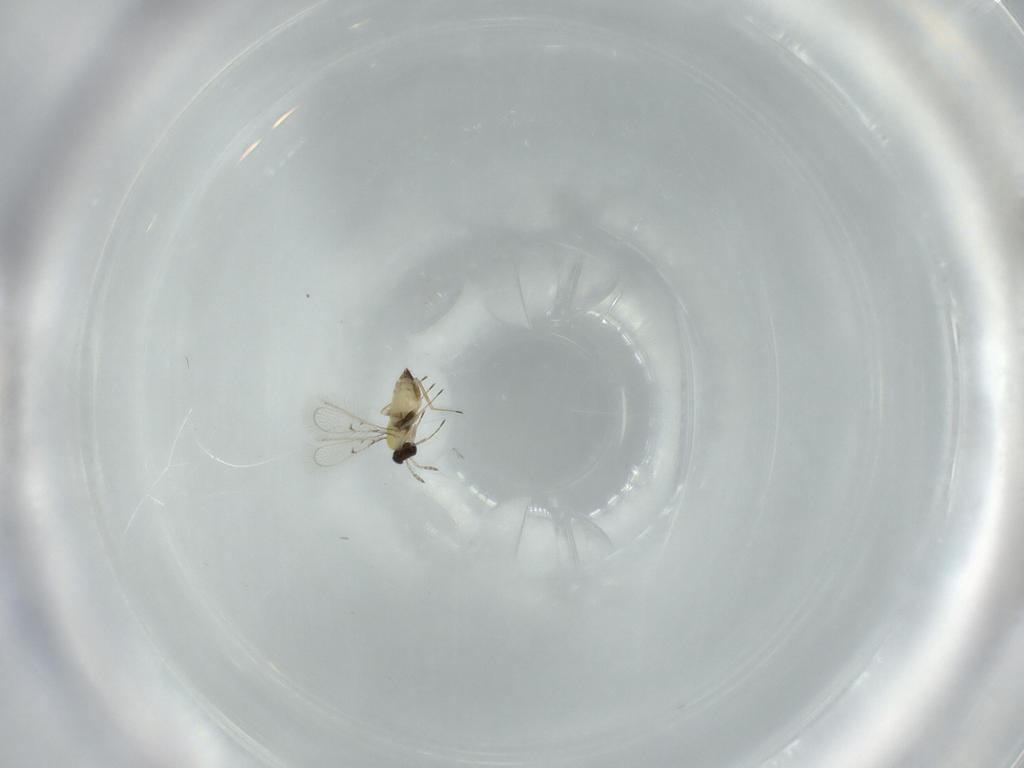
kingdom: Animalia
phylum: Arthropoda
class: Insecta
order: Hymenoptera
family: Trichogrammatidae
